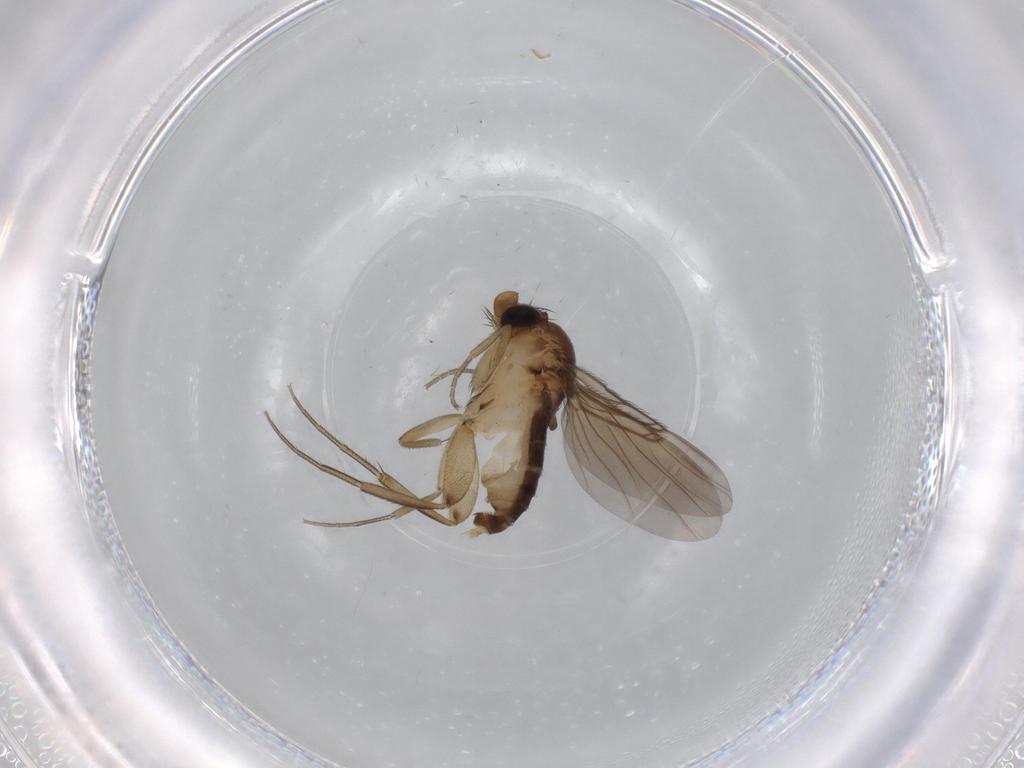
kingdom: Animalia
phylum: Arthropoda
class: Insecta
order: Diptera
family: Phoridae
